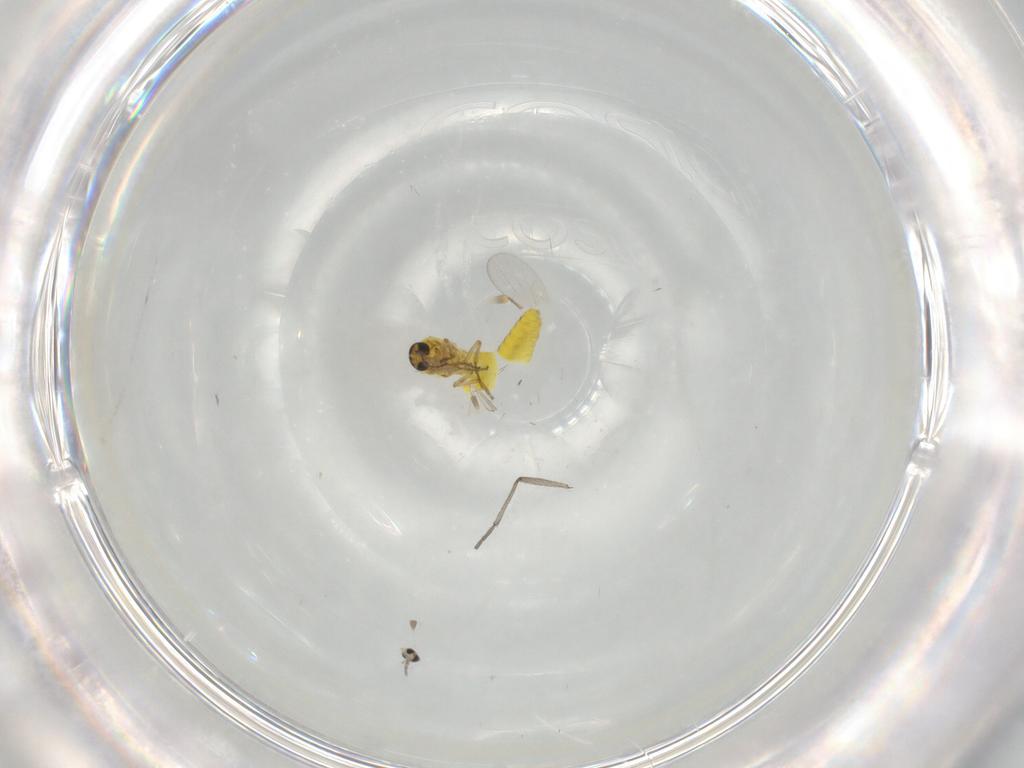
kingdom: Animalia
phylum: Arthropoda
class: Insecta
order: Diptera
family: Ceratopogonidae
